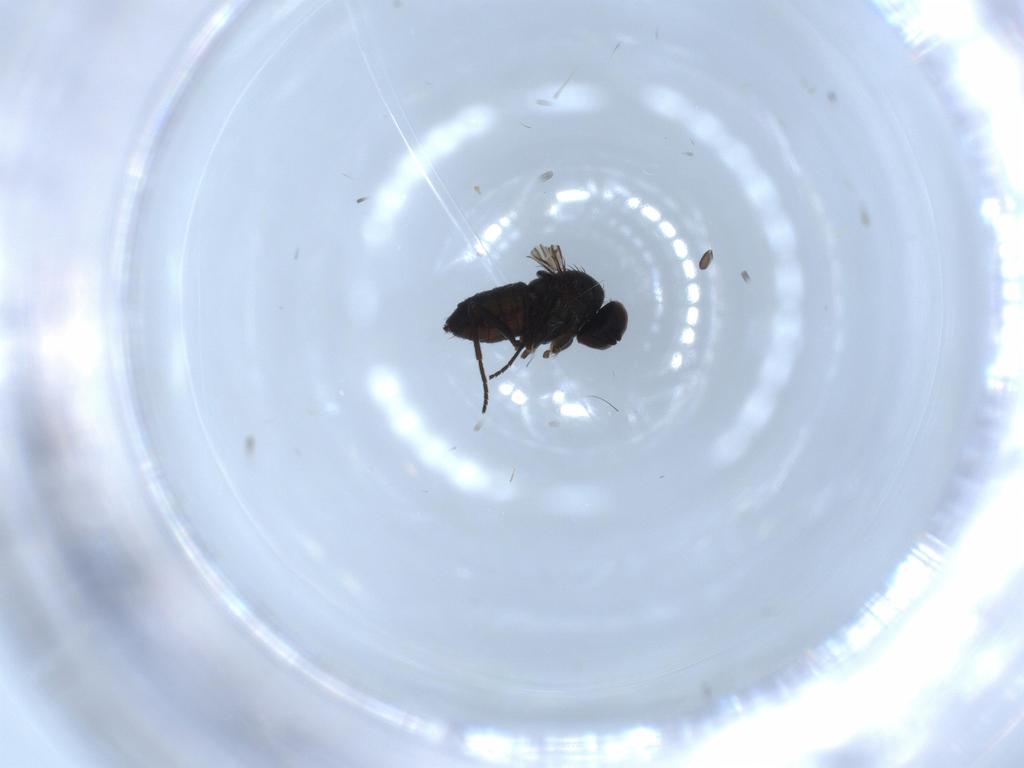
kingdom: Animalia
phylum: Arthropoda
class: Insecta
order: Diptera
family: Dolichopodidae
